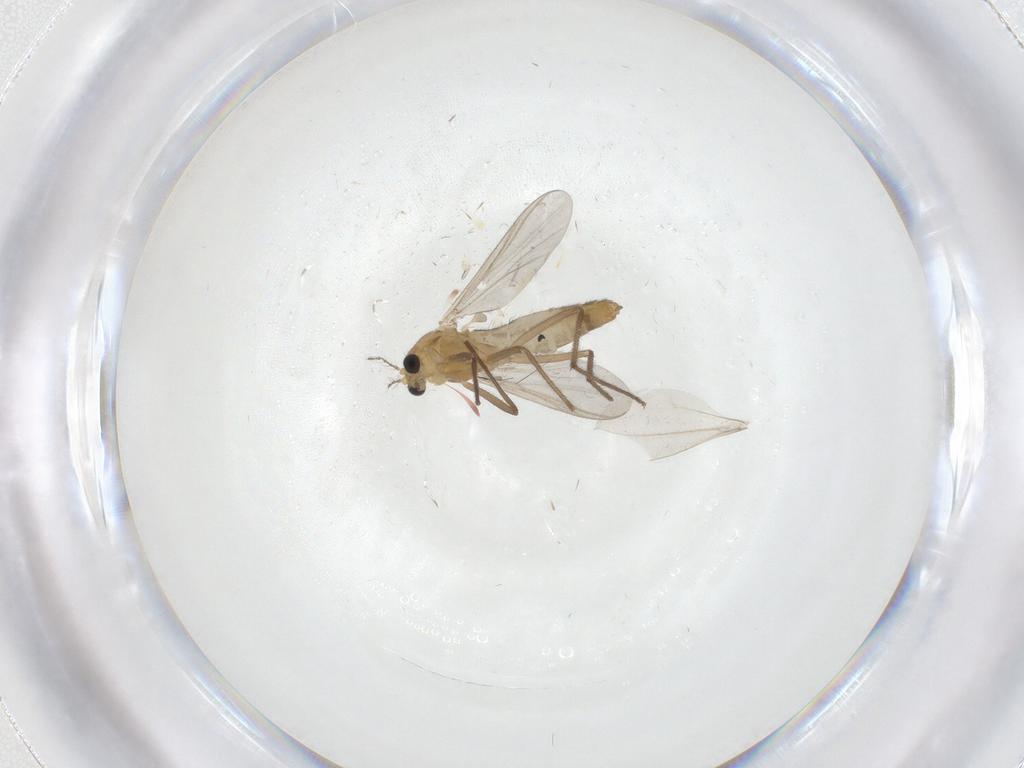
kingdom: Animalia
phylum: Arthropoda
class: Insecta
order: Diptera
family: Chironomidae
